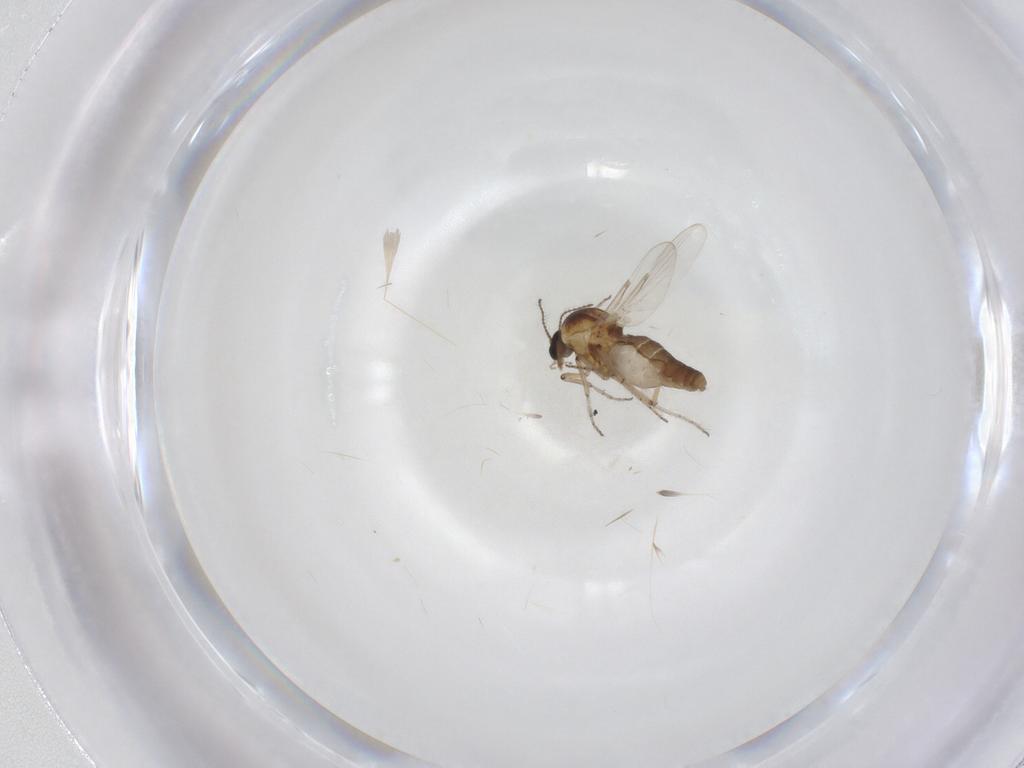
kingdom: Animalia
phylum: Arthropoda
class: Insecta
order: Diptera
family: Ceratopogonidae
